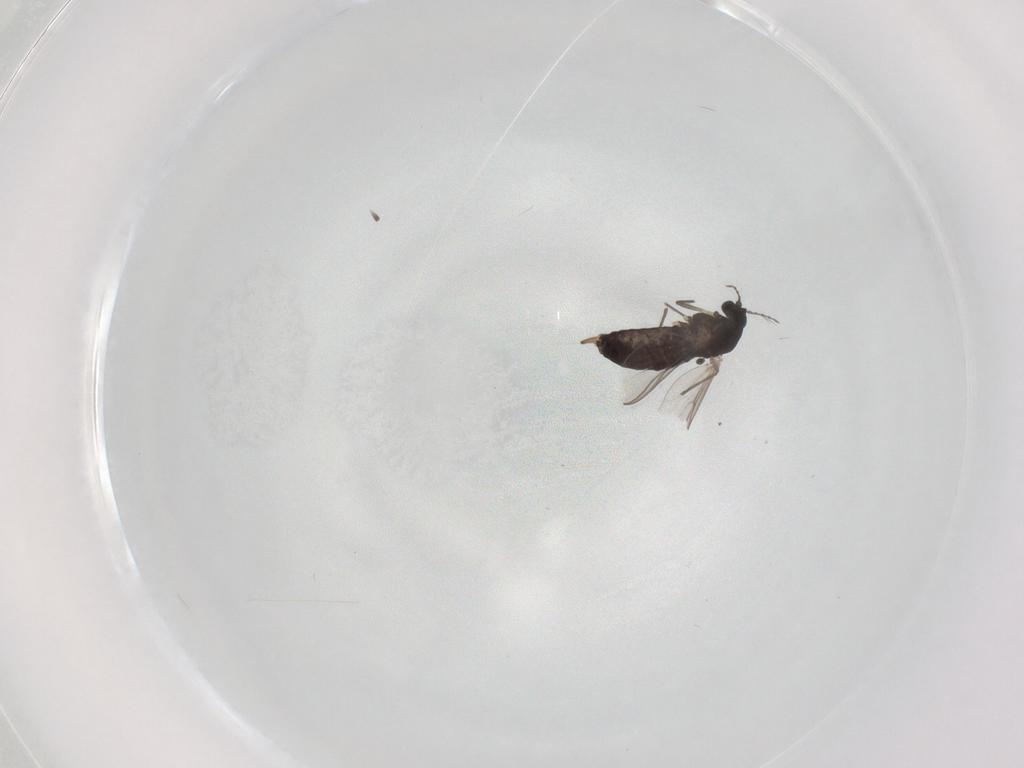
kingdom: Animalia
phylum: Arthropoda
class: Insecta
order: Diptera
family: Chironomidae
